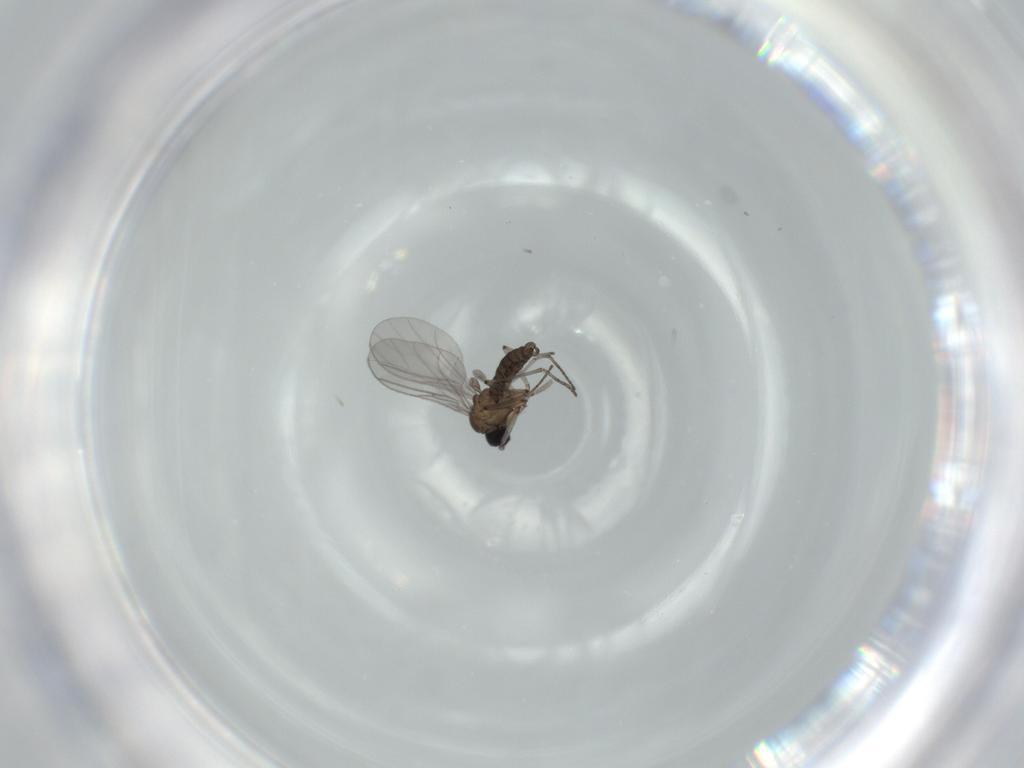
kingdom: Animalia
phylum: Arthropoda
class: Insecta
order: Diptera
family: Sciaridae
